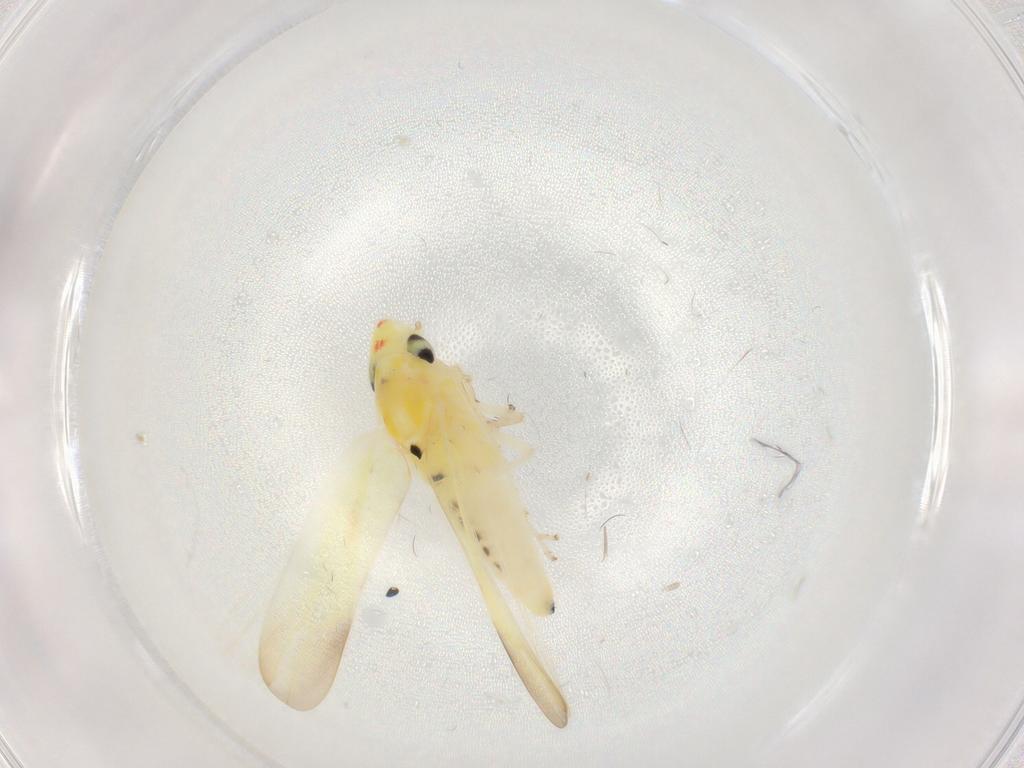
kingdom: Animalia
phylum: Arthropoda
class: Insecta
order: Hemiptera
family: Cicadellidae
